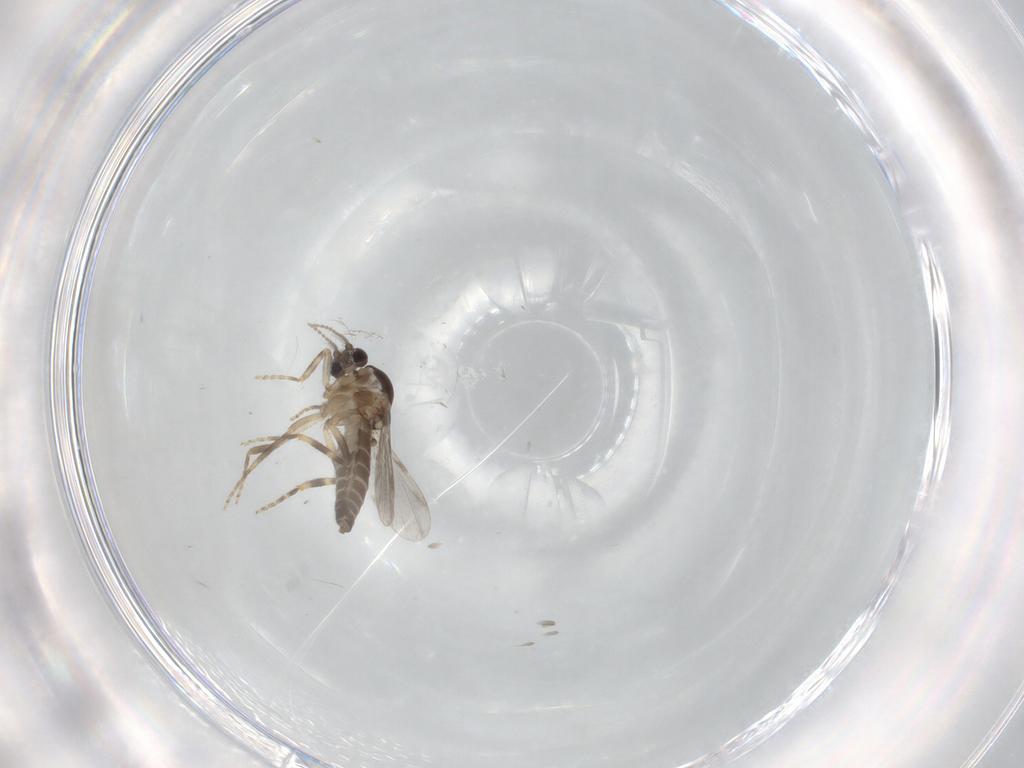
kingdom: Animalia
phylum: Arthropoda
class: Insecta
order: Diptera
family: Ceratopogonidae
